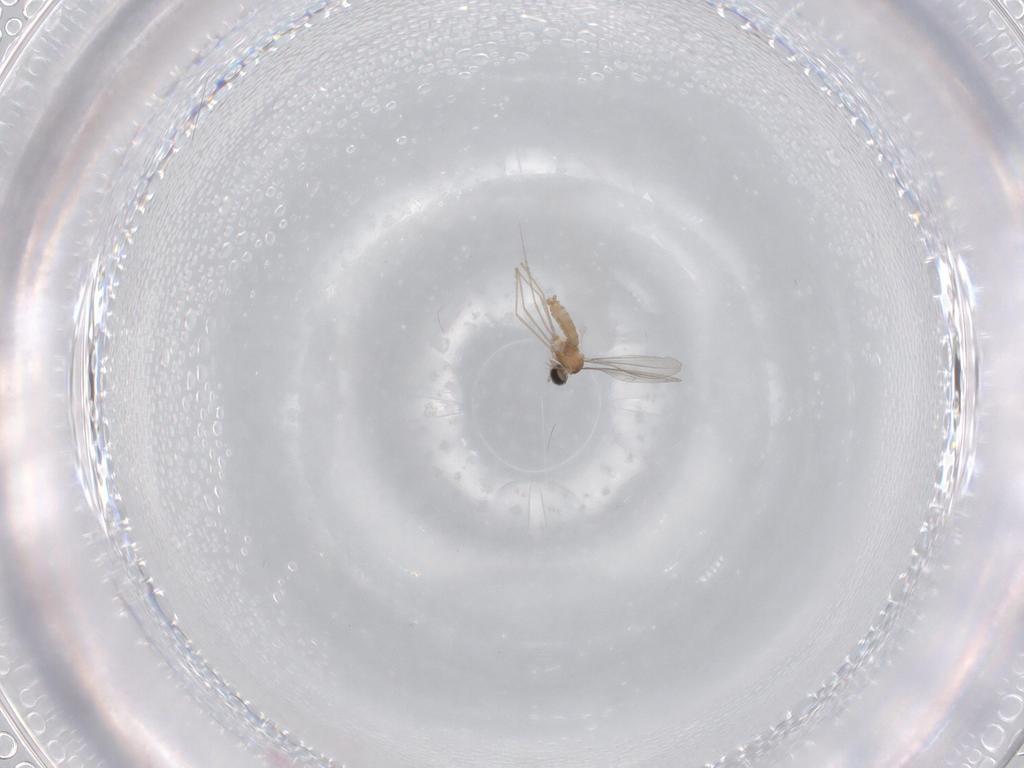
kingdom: Animalia
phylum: Arthropoda
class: Insecta
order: Diptera
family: Cecidomyiidae
